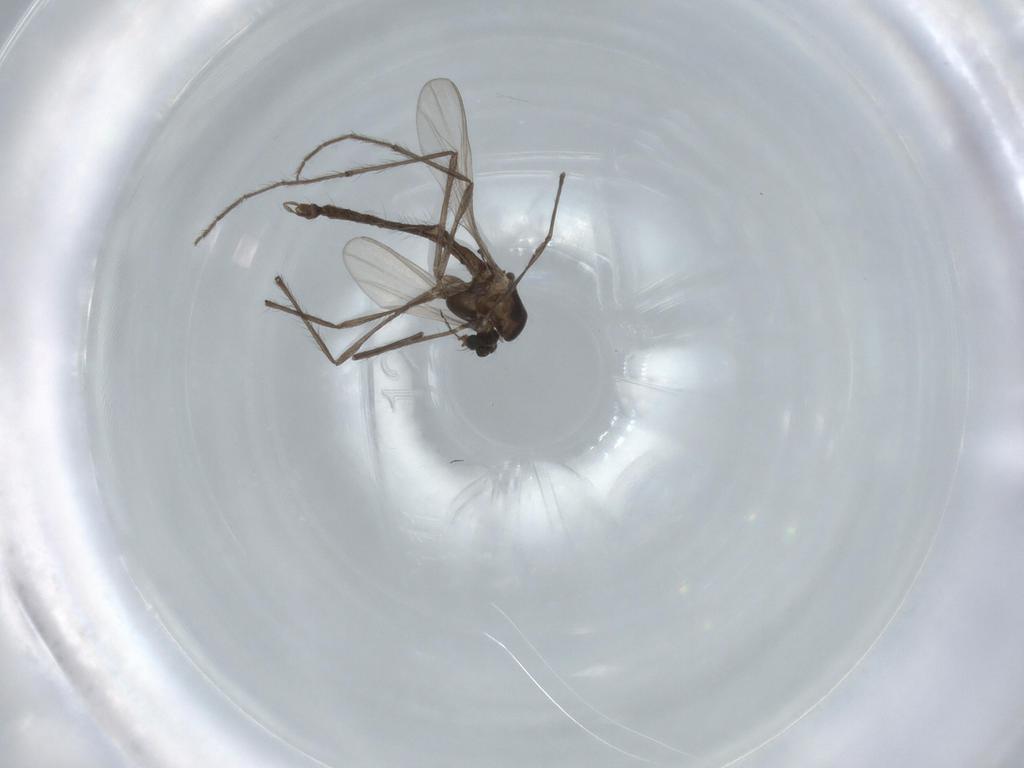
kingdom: Animalia
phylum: Arthropoda
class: Insecta
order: Diptera
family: Chironomidae
